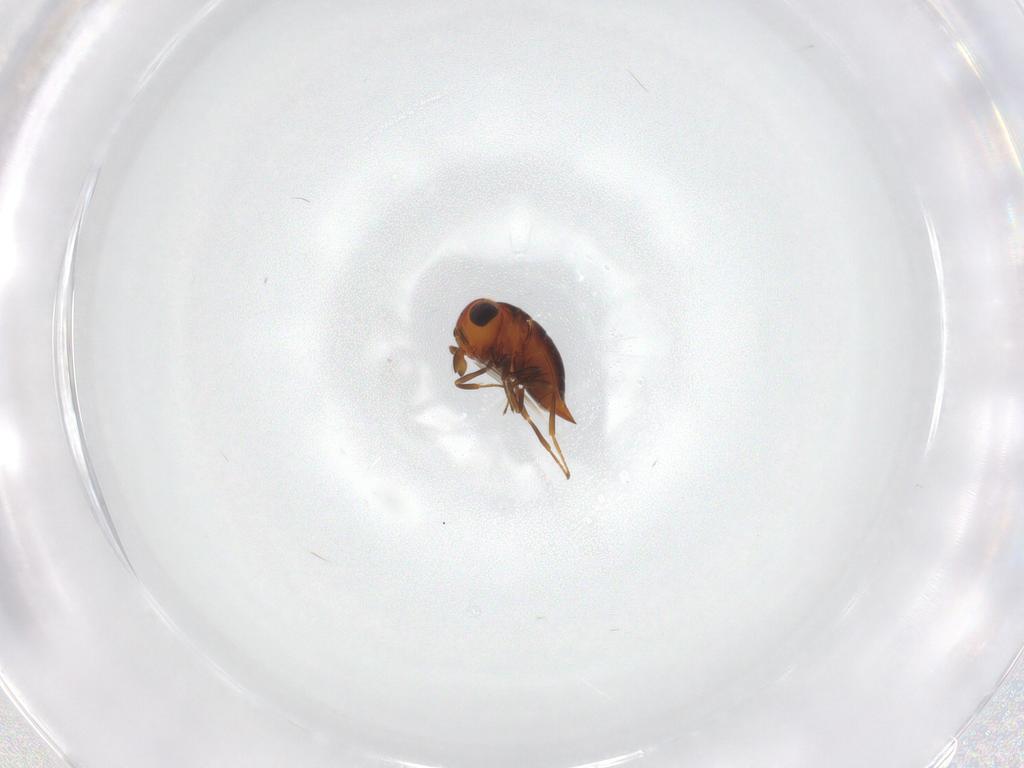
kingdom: Animalia
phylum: Arthropoda
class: Insecta
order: Hymenoptera
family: Scelionidae
